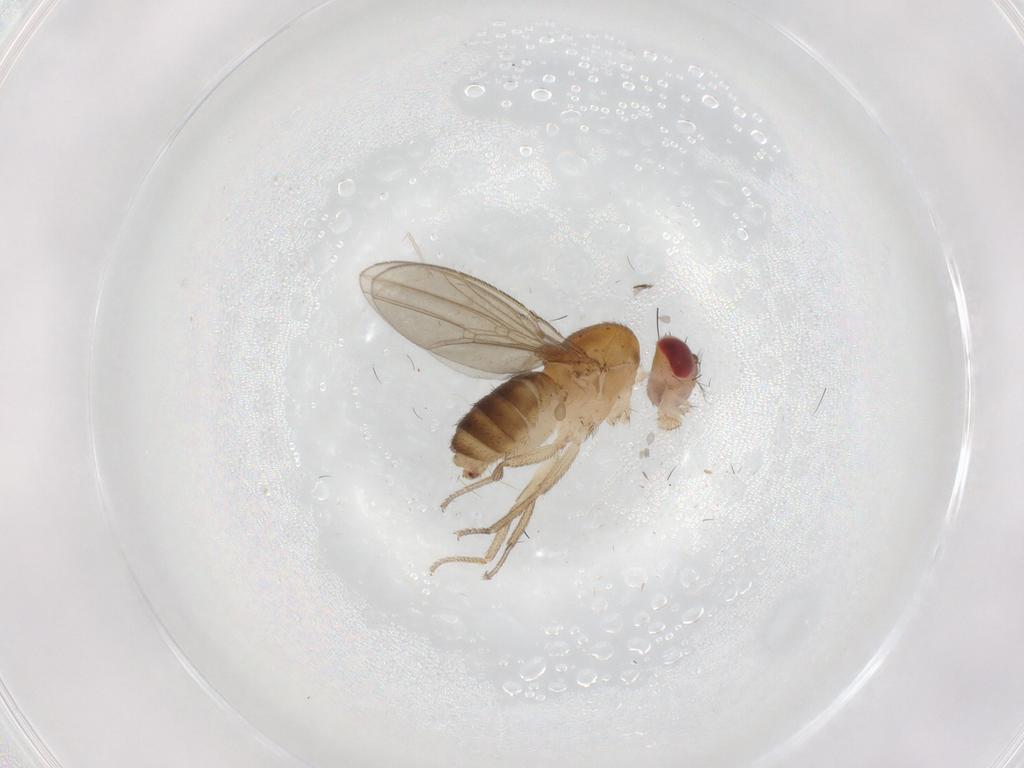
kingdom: Animalia
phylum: Arthropoda
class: Insecta
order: Diptera
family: Drosophilidae
